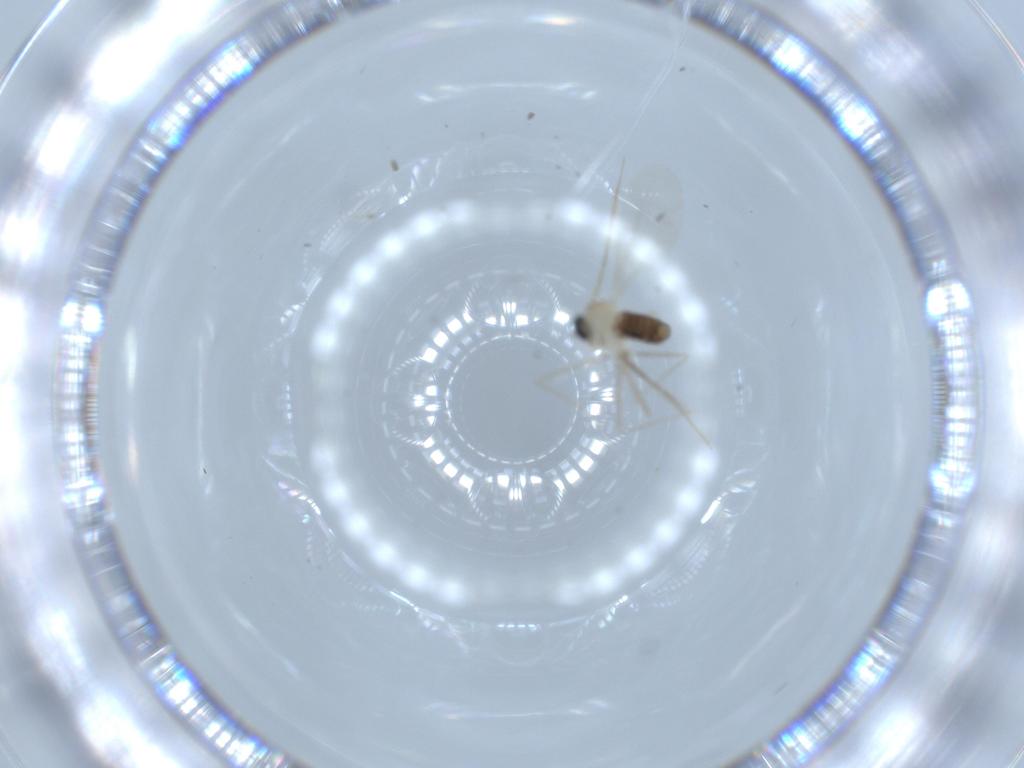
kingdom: Animalia
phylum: Arthropoda
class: Insecta
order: Diptera
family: Cecidomyiidae
